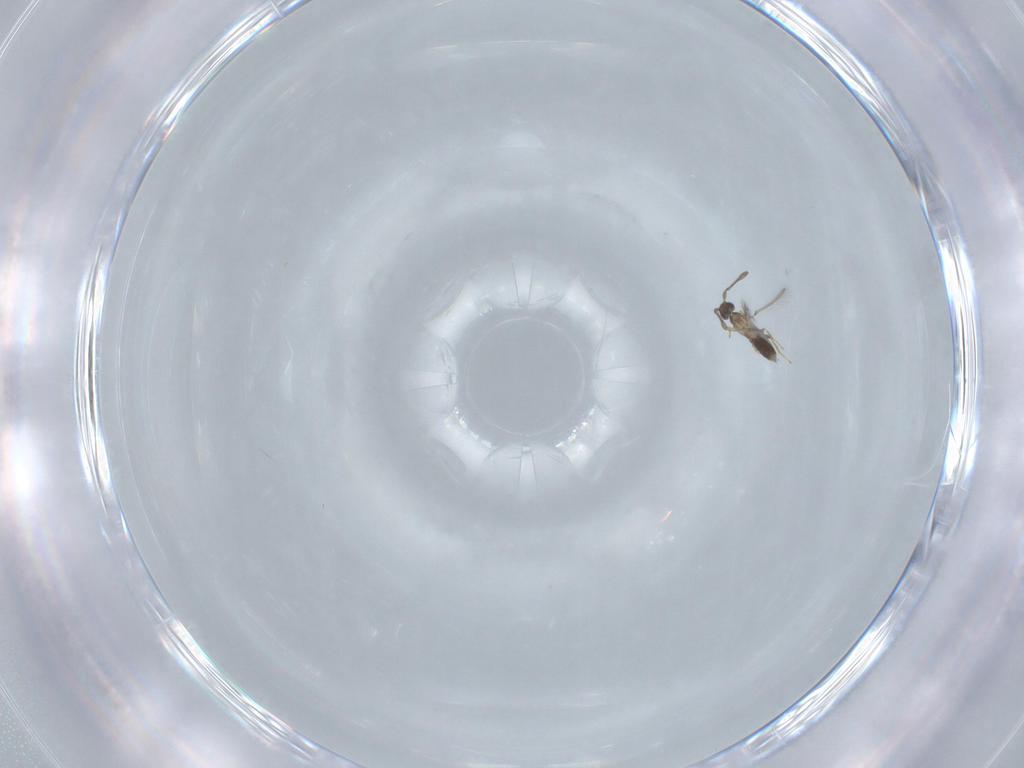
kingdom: Animalia
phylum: Arthropoda
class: Insecta
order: Hymenoptera
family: Mymaridae
